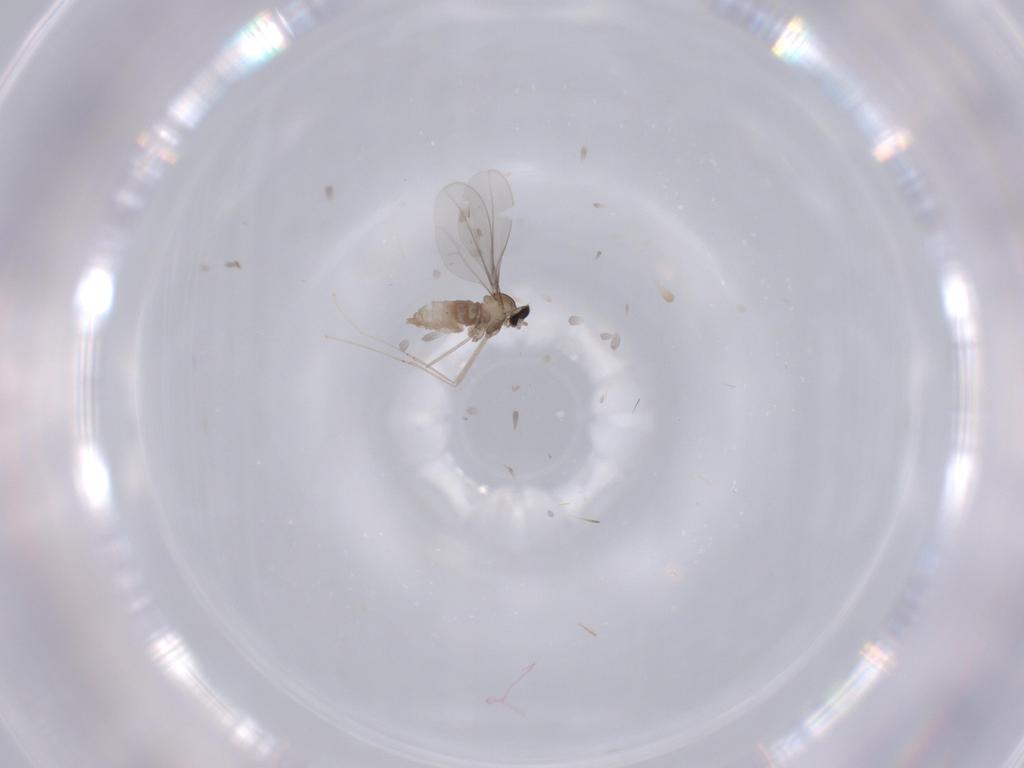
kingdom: Animalia
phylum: Arthropoda
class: Insecta
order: Diptera
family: Cecidomyiidae
